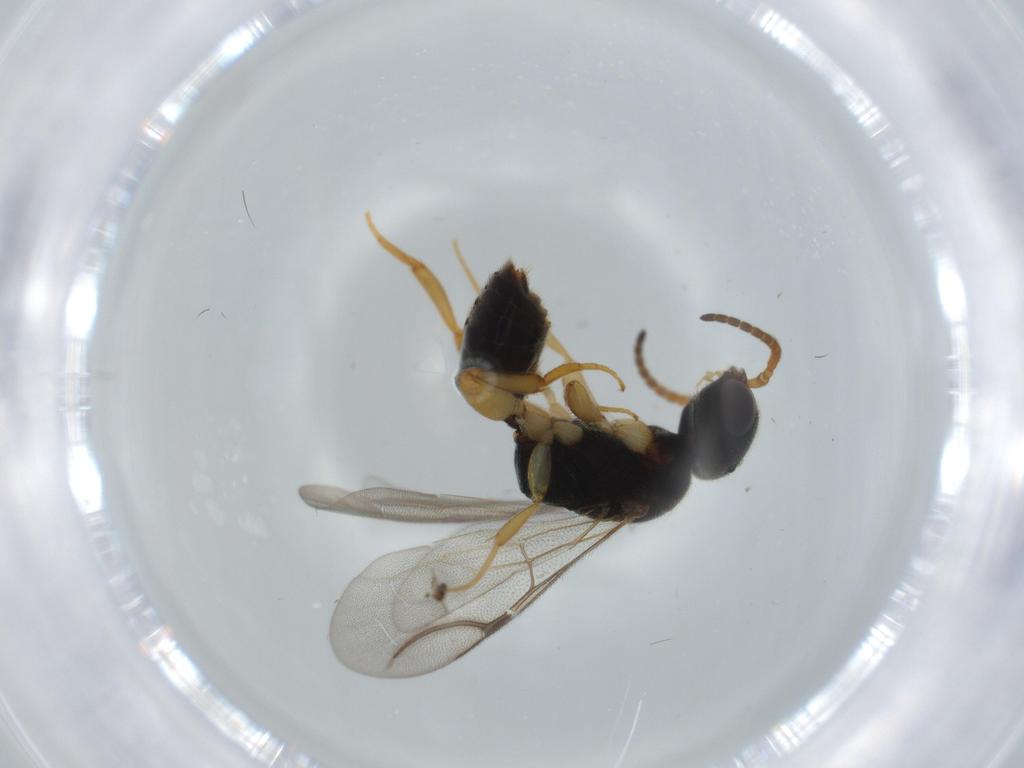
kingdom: Animalia
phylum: Arthropoda
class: Insecta
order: Hymenoptera
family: Bethylidae
